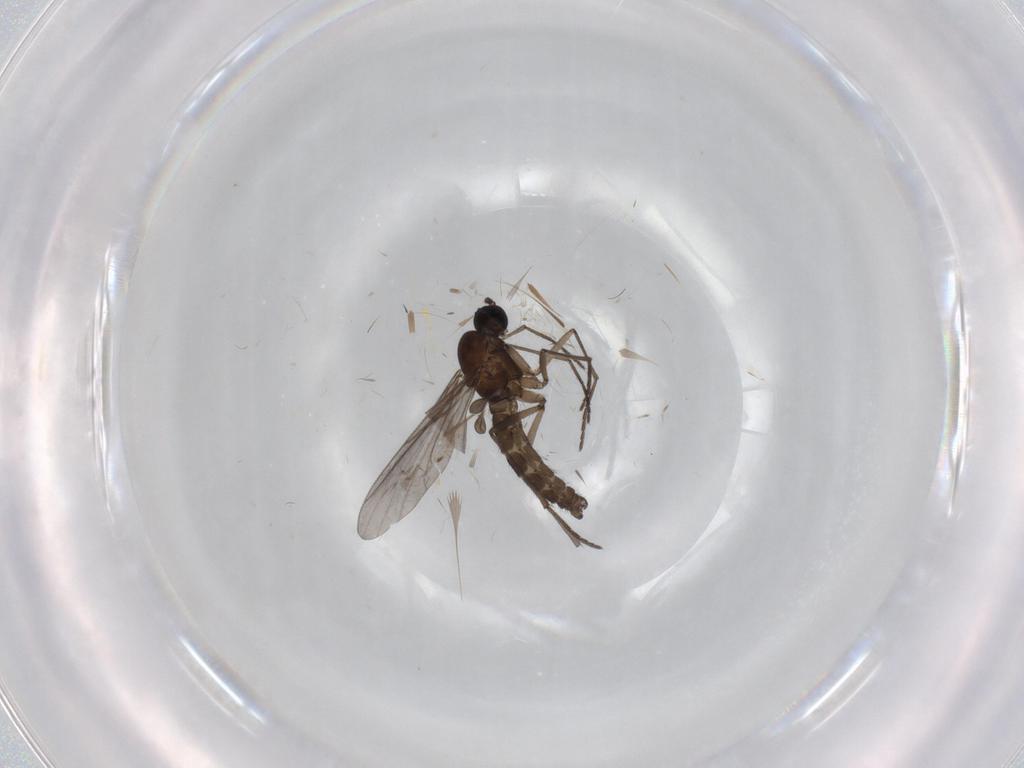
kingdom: Animalia
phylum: Arthropoda
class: Insecta
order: Diptera
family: Limoniidae
